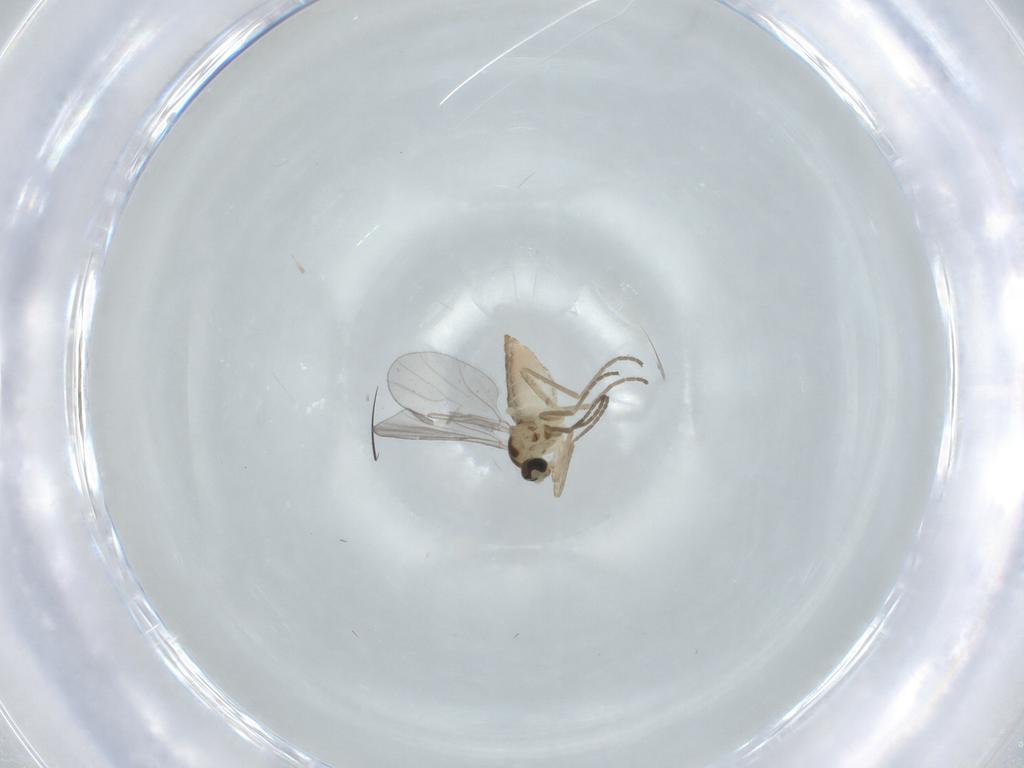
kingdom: Animalia
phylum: Arthropoda
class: Insecta
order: Diptera
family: Cecidomyiidae
